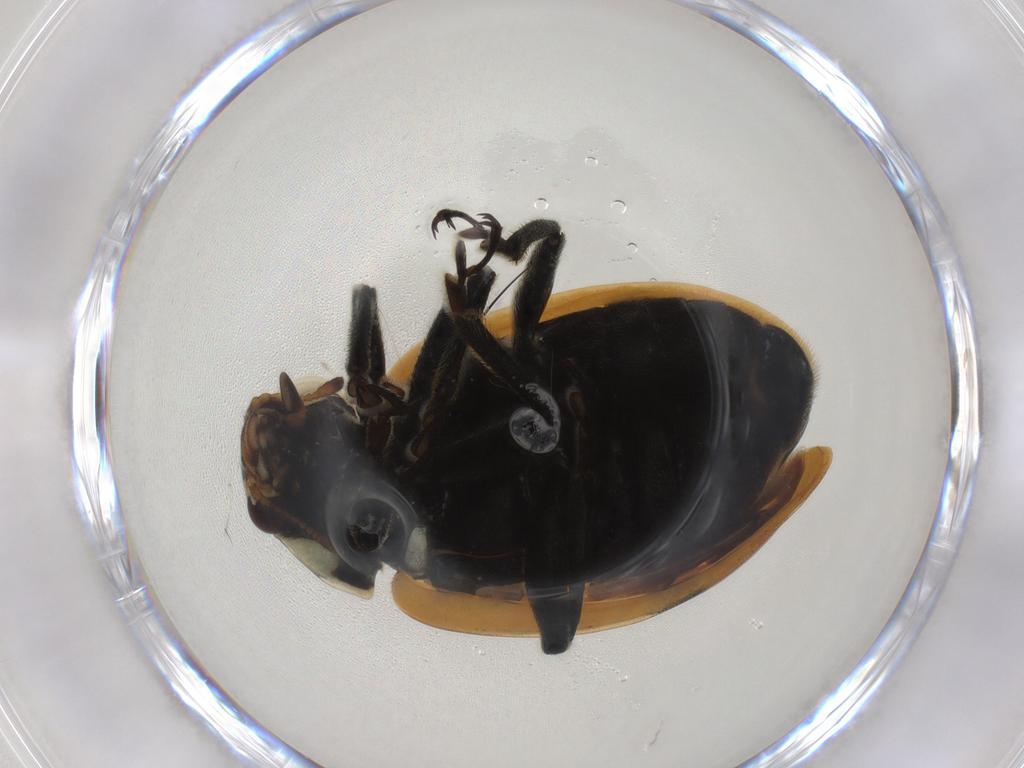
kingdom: Animalia
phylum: Arthropoda
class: Insecta
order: Coleoptera
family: Coccinellidae
